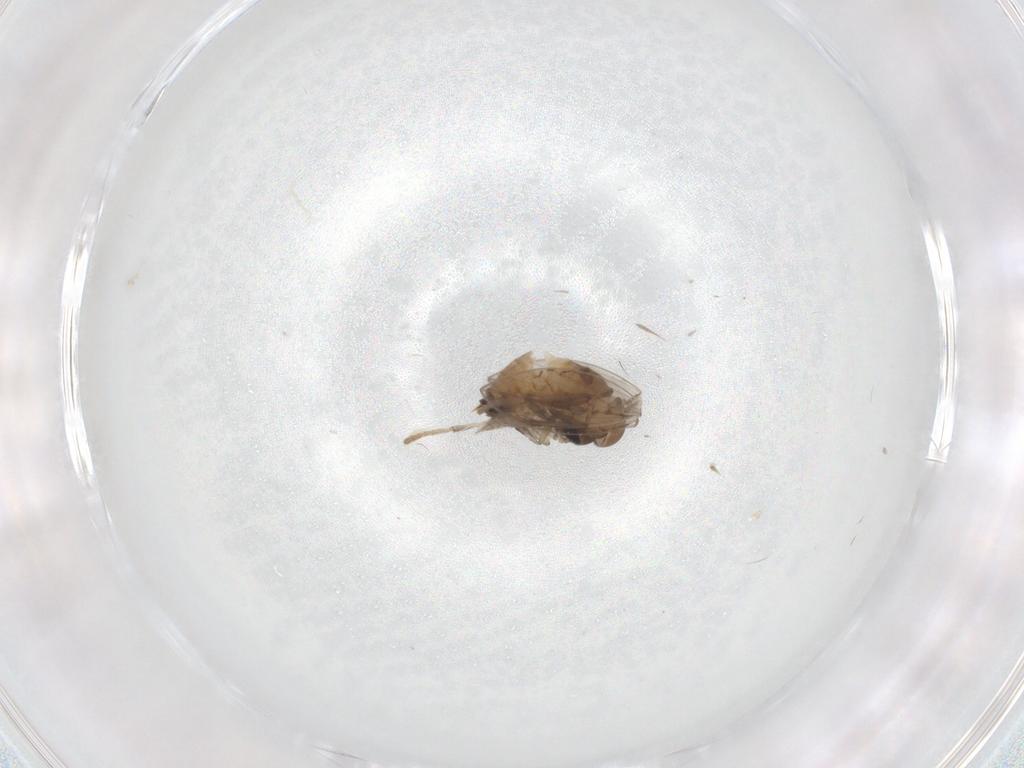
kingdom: Animalia
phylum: Arthropoda
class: Insecta
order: Diptera
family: Psychodidae
